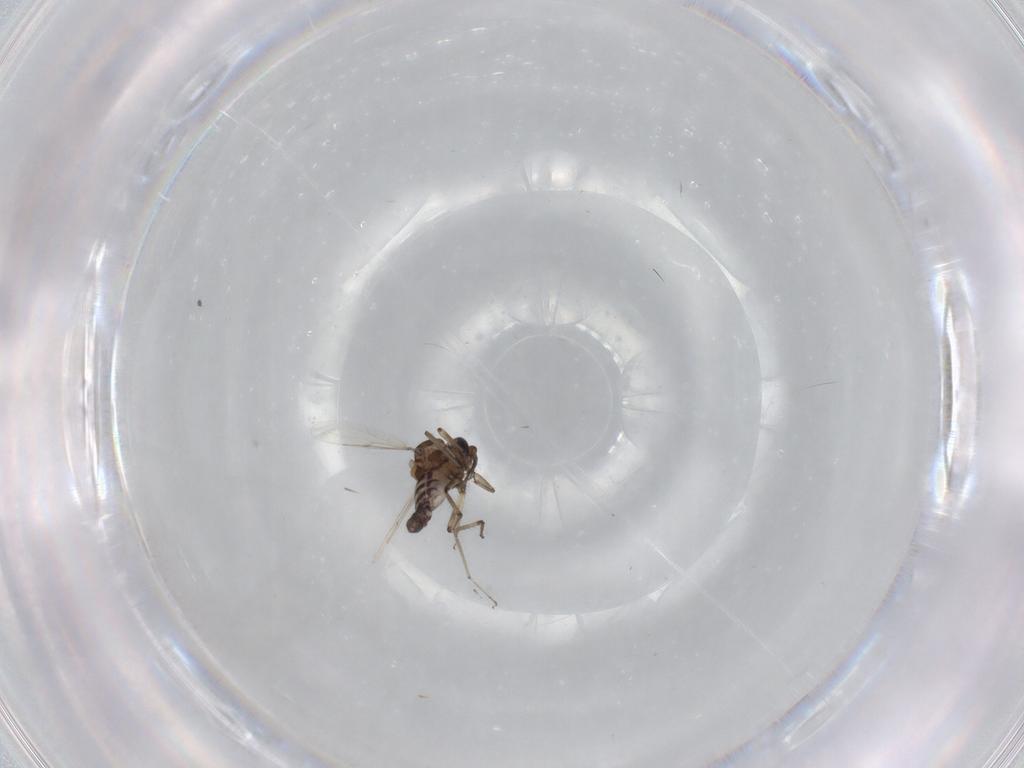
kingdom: Animalia
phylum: Arthropoda
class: Insecta
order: Diptera
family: Ceratopogonidae
